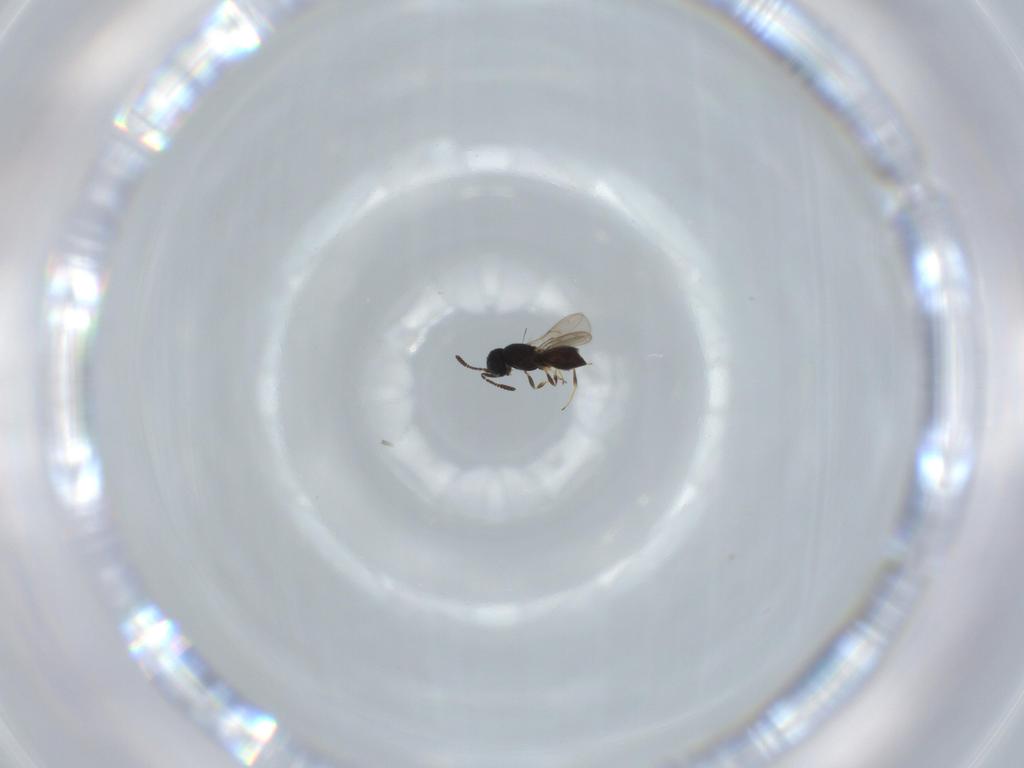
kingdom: Animalia
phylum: Arthropoda
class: Insecta
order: Hymenoptera
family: Scelionidae
